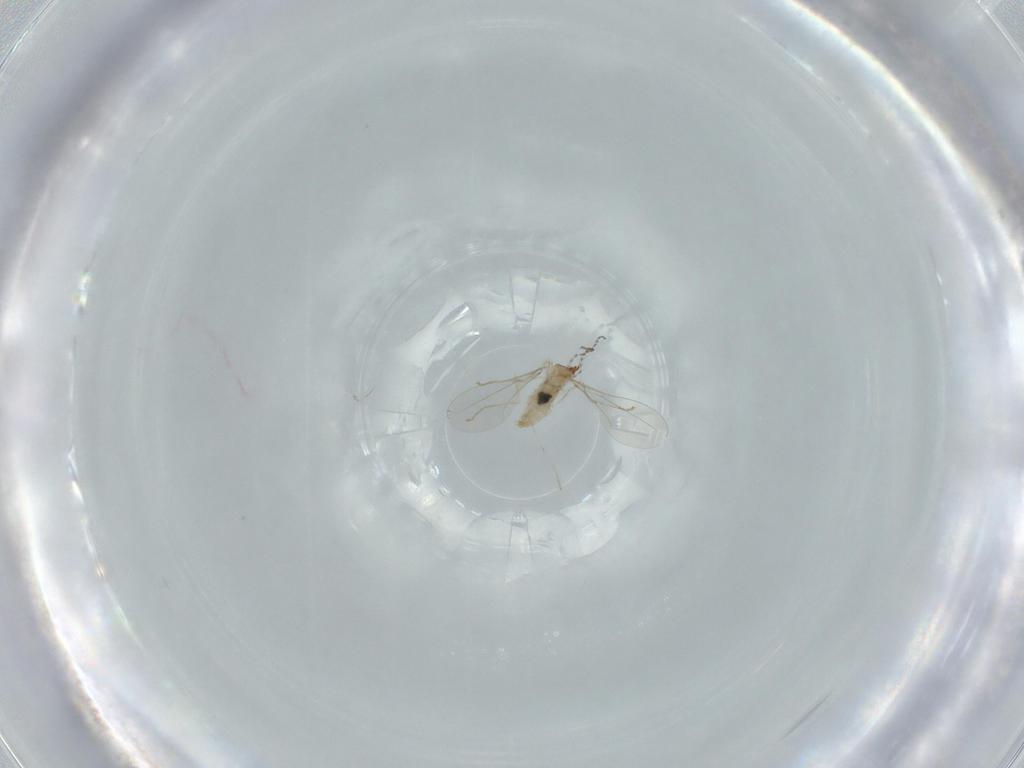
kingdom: Animalia
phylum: Arthropoda
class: Insecta
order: Diptera
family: Cecidomyiidae
